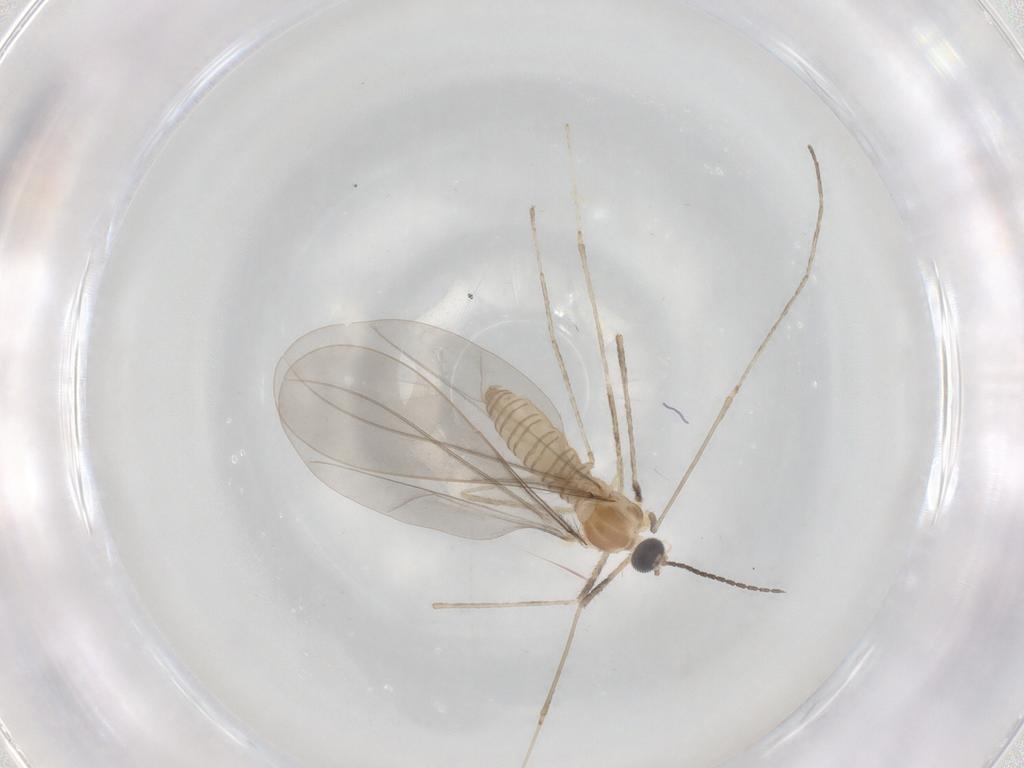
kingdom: Animalia
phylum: Arthropoda
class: Insecta
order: Diptera
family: Cecidomyiidae
